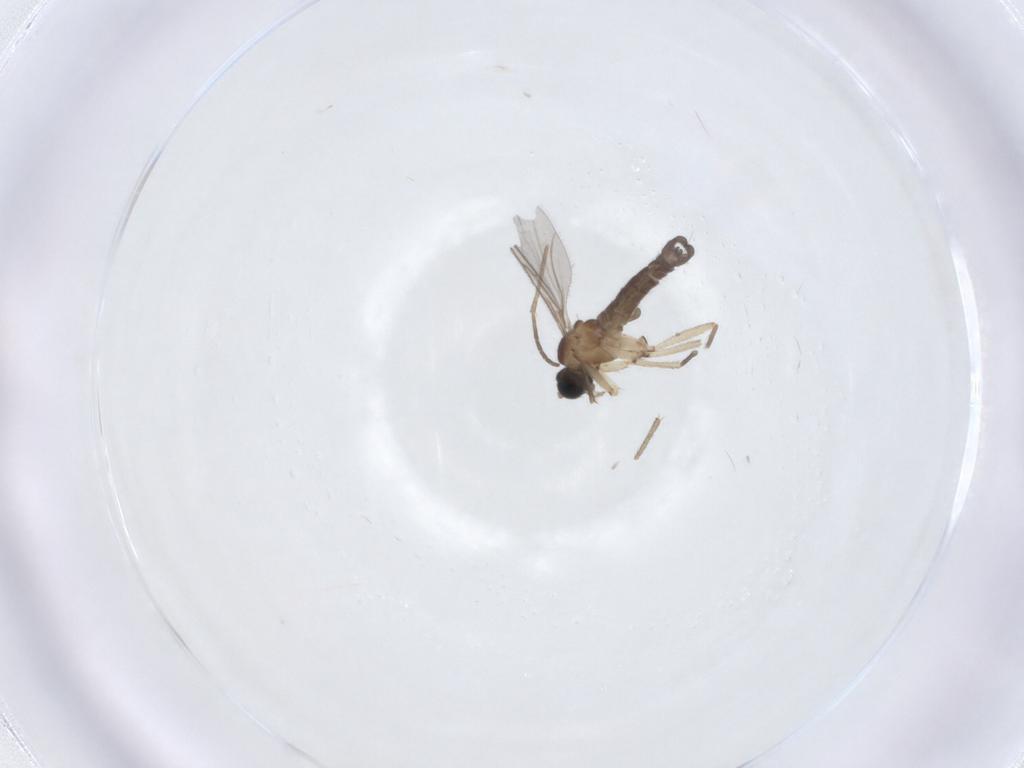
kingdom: Animalia
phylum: Arthropoda
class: Insecta
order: Diptera
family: Sciaridae
